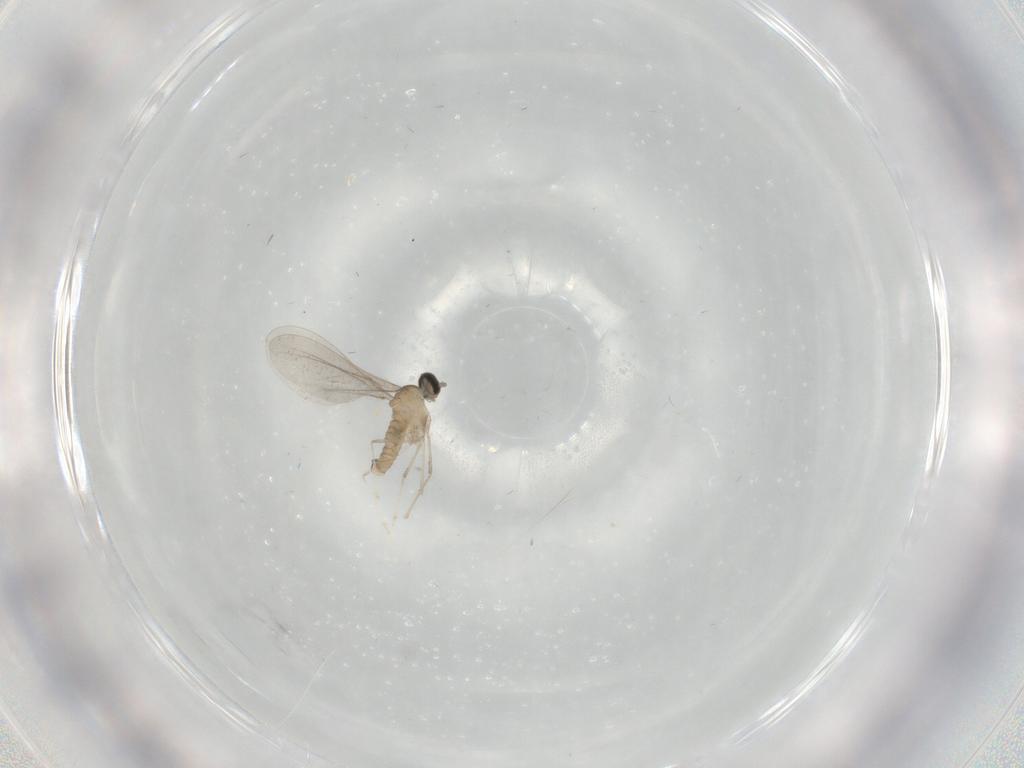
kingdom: Animalia
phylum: Arthropoda
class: Insecta
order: Diptera
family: Cecidomyiidae
